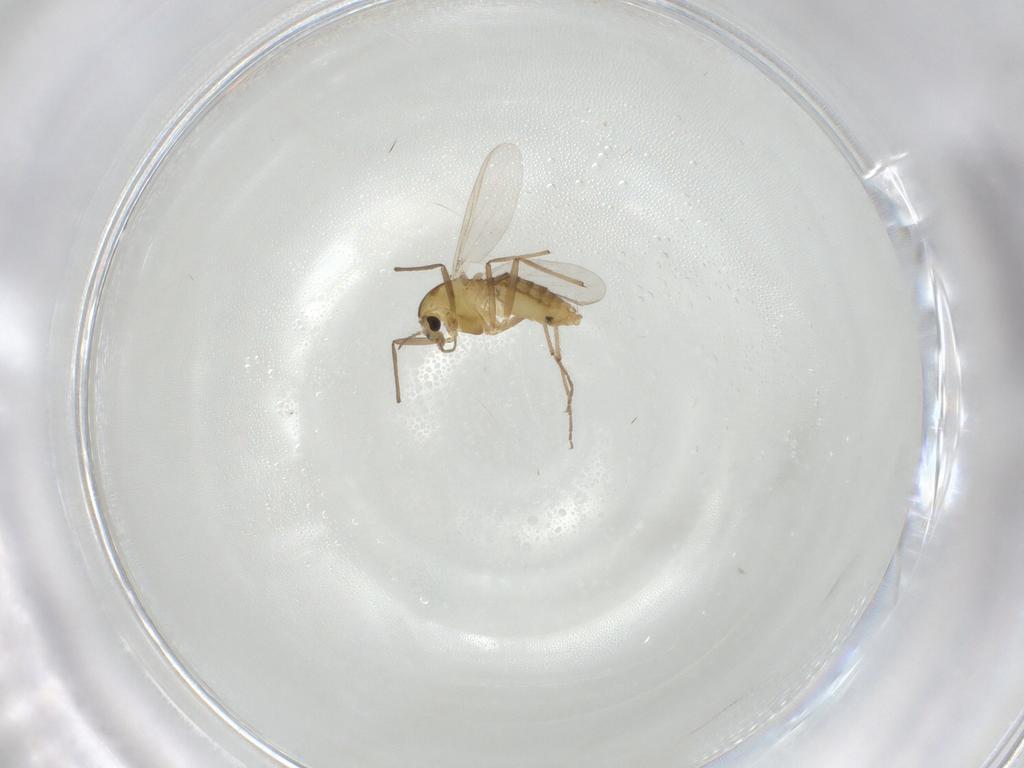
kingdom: Animalia
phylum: Arthropoda
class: Insecta
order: Diptera
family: Chironomidae
